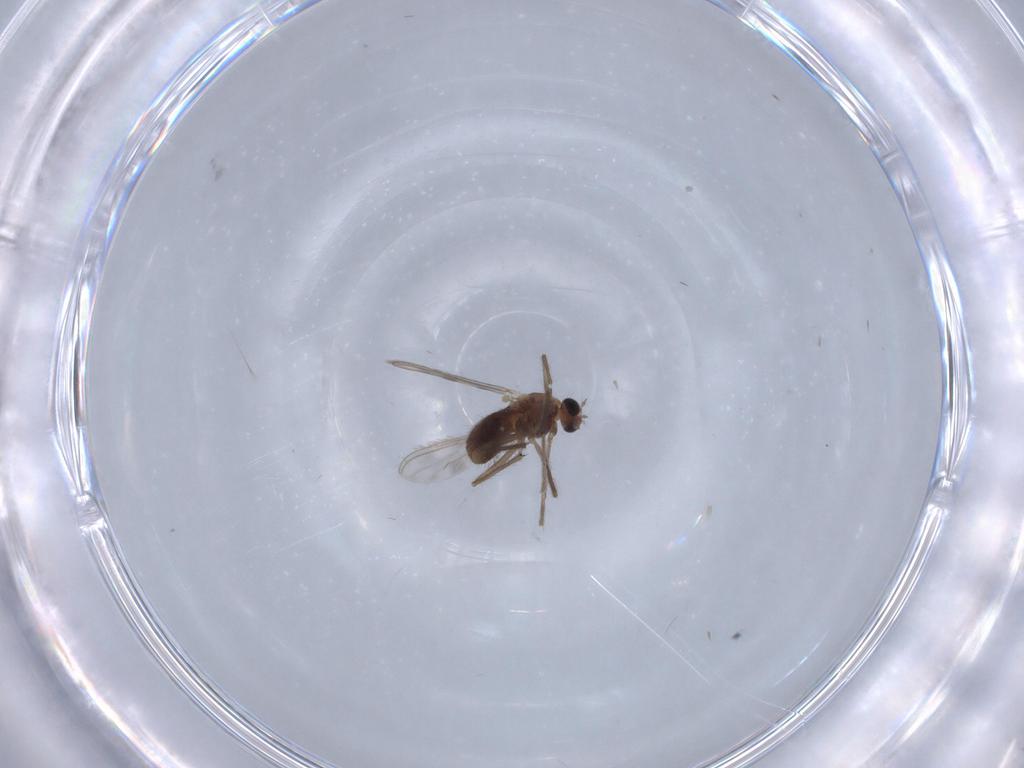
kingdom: Animalia
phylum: Arthropoda
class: Insecta
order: Diptera
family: Chironomidae
